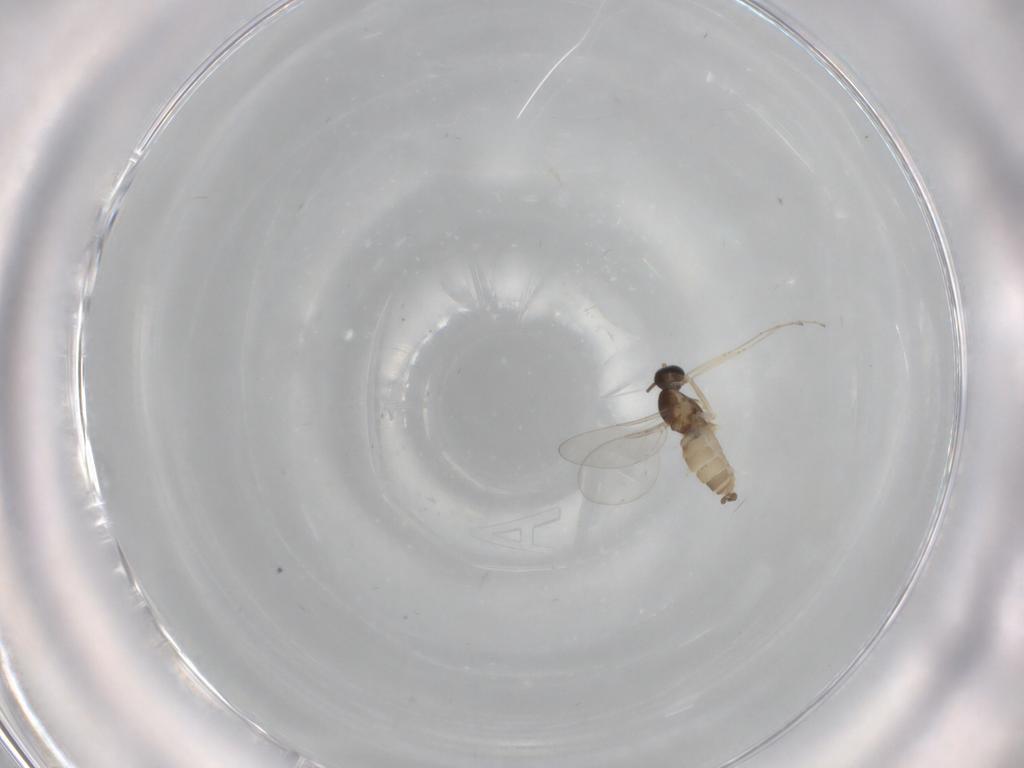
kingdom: Animalia
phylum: Arthropoda
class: Insecta
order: Diptera
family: Cecidomyiidae
